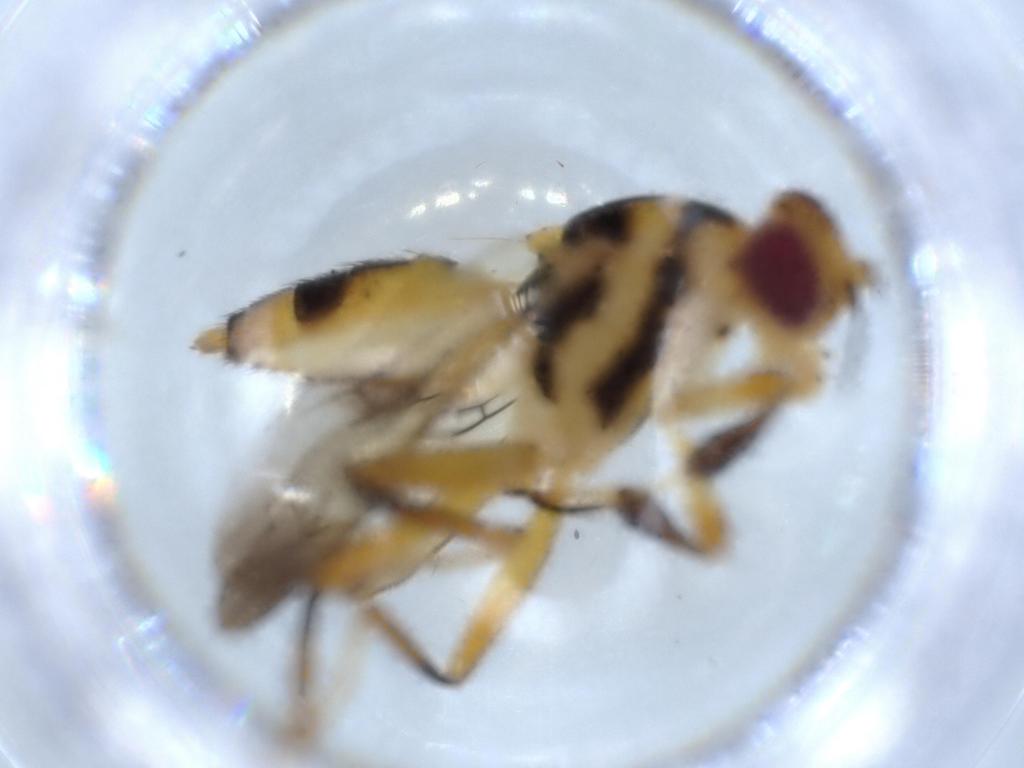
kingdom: Animalia
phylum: Arthropoda
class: Insecta
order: Diptera
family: Clusiidae
